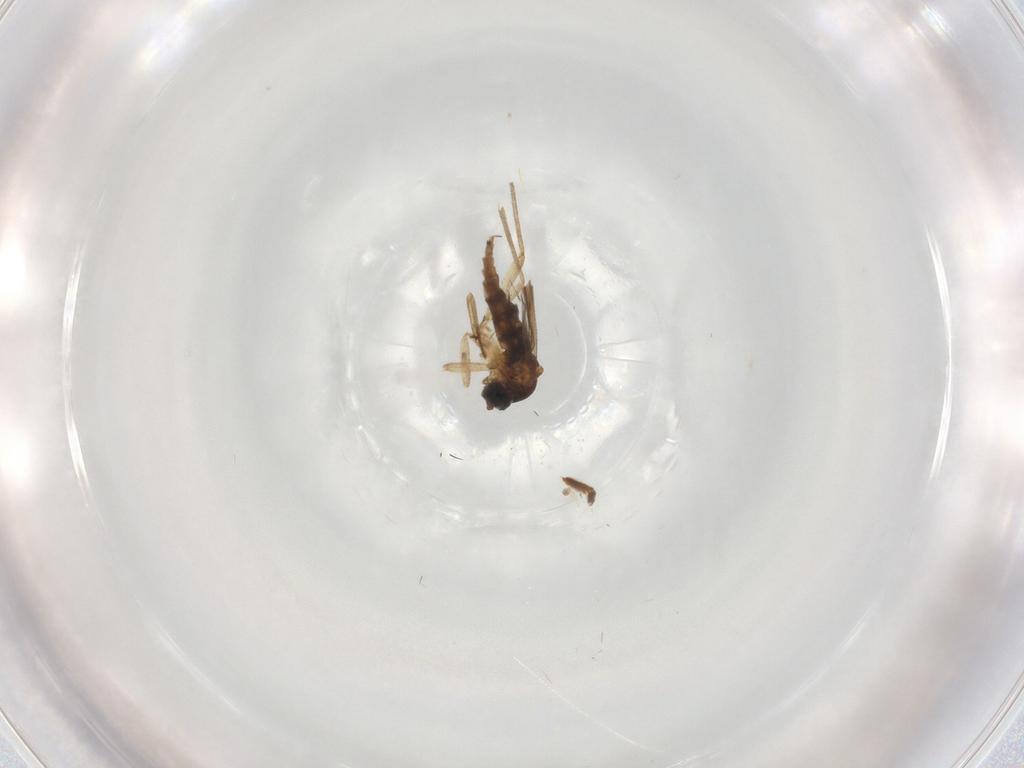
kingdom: Animalia
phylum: Arthropoda
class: Insecta
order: Diptera
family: Sciaridae
